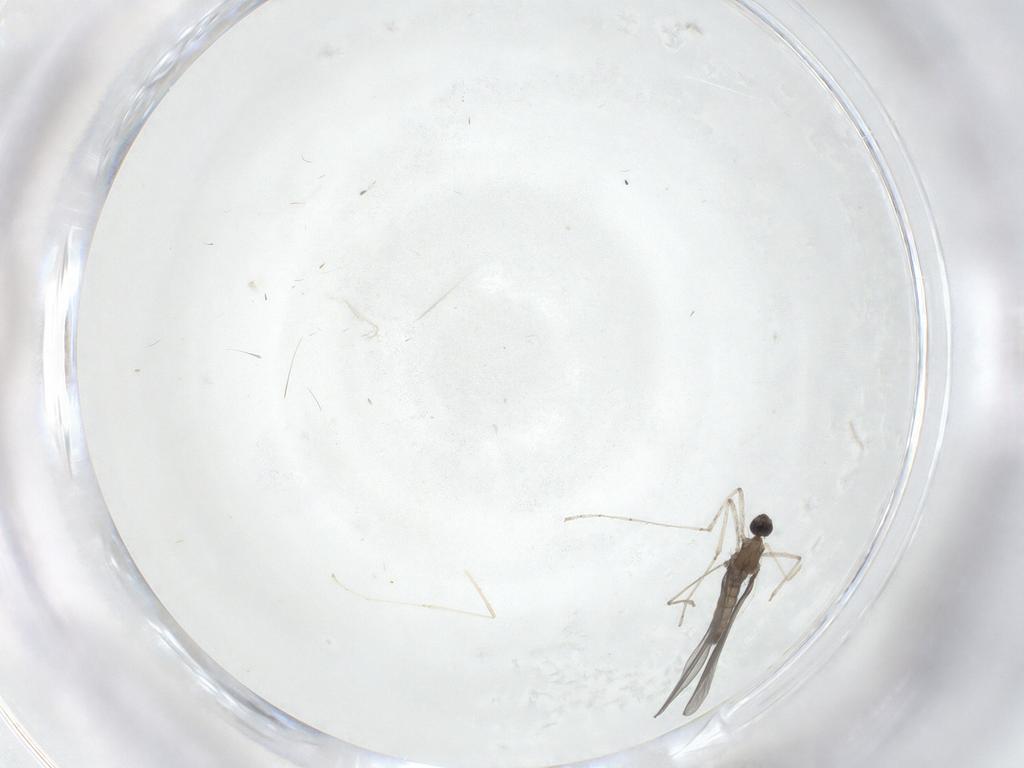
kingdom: Animalia
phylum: Arthropoda
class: Insecta
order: Diptera
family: Cecidomyiidae
